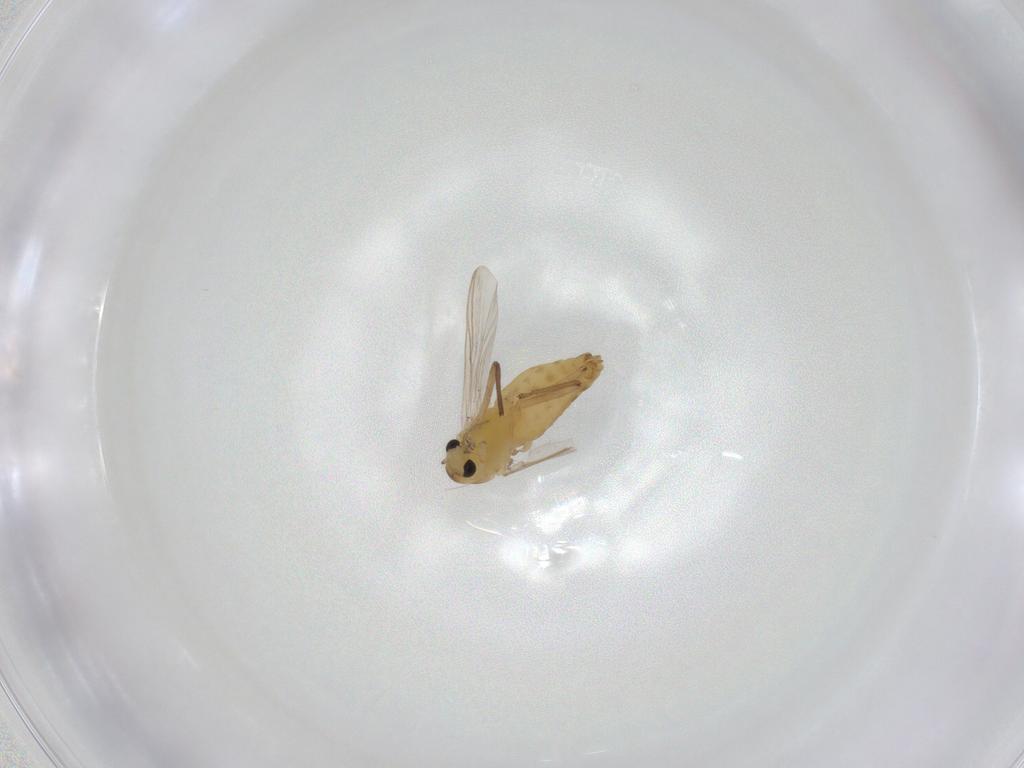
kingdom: Animalia
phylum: Arthropoda
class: Insecta
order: Diptera
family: Chironomidae
